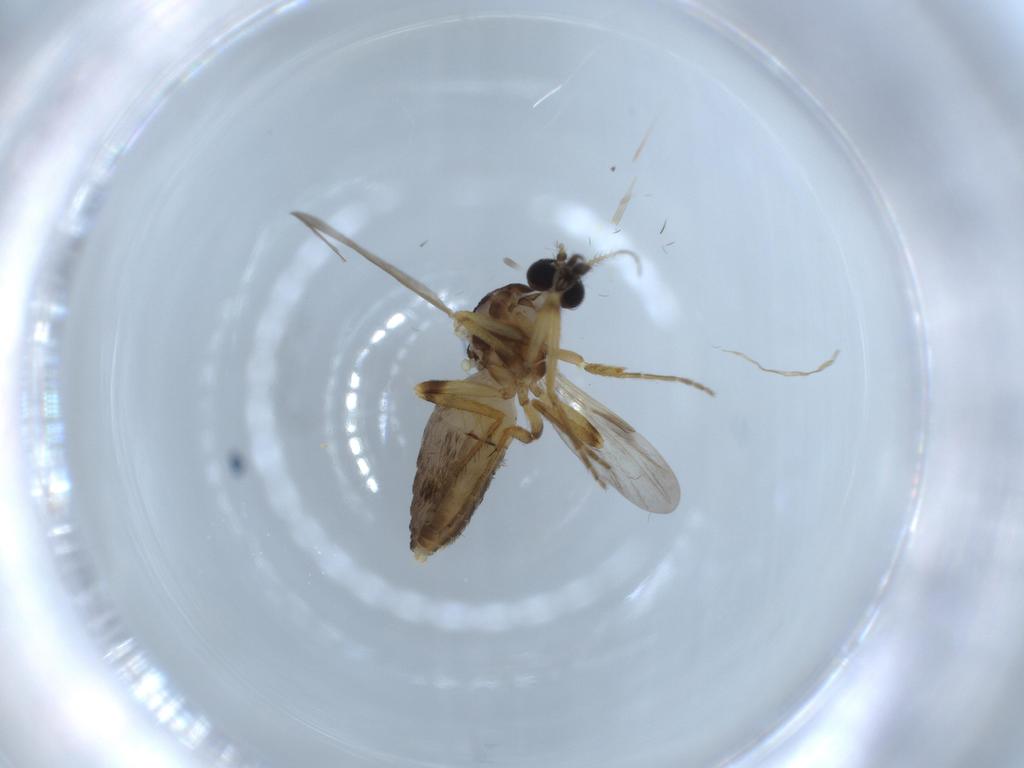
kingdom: Animalia
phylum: Arthropoda
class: Insecta
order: Diptera
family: Ceratopogonidae
